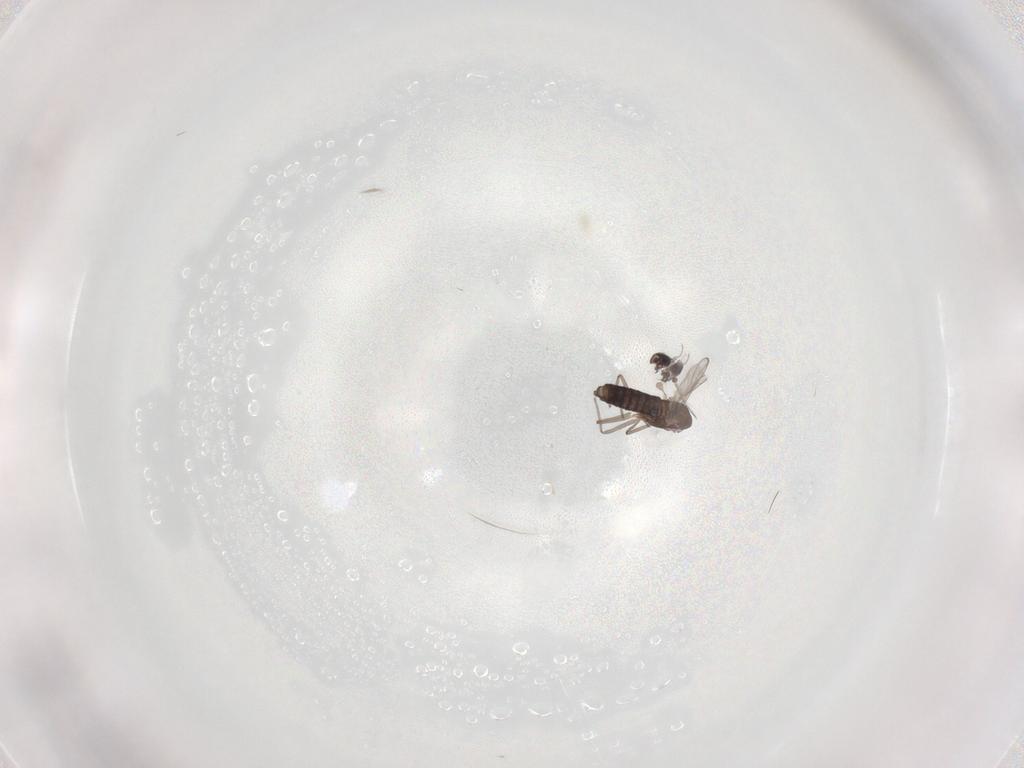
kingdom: Animalia
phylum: Arthropoda
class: Insecta
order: Diptera
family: Chironomidae
